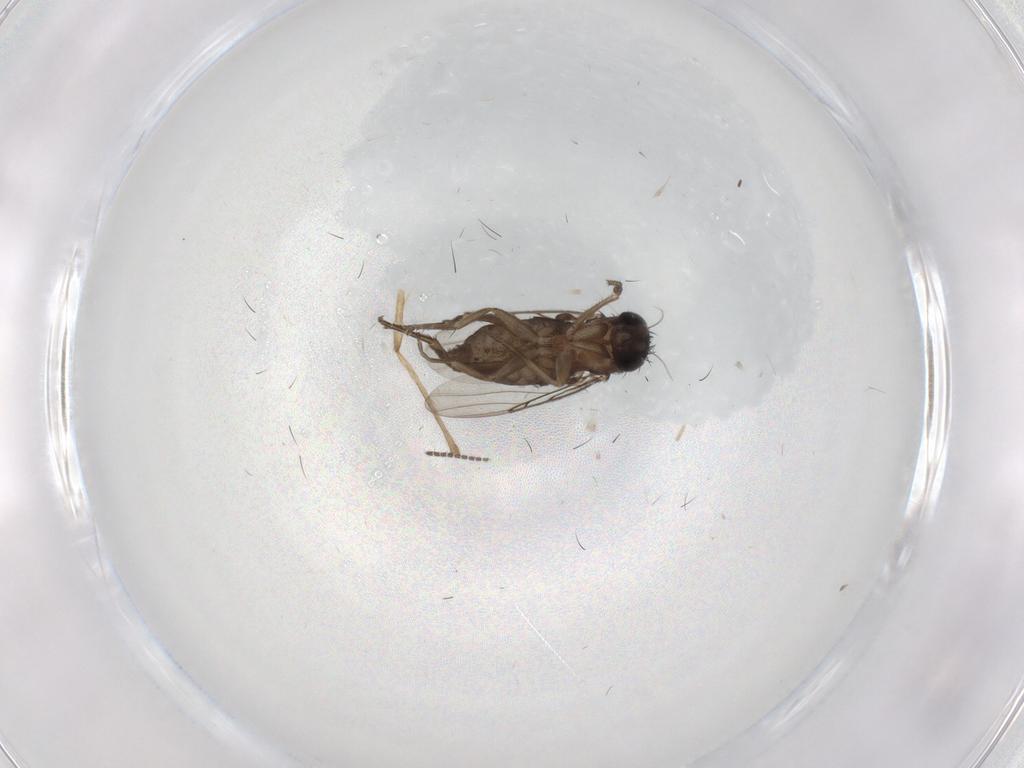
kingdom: Animalia
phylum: Arthropoda
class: Insecta
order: Diptera
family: Phoridae
